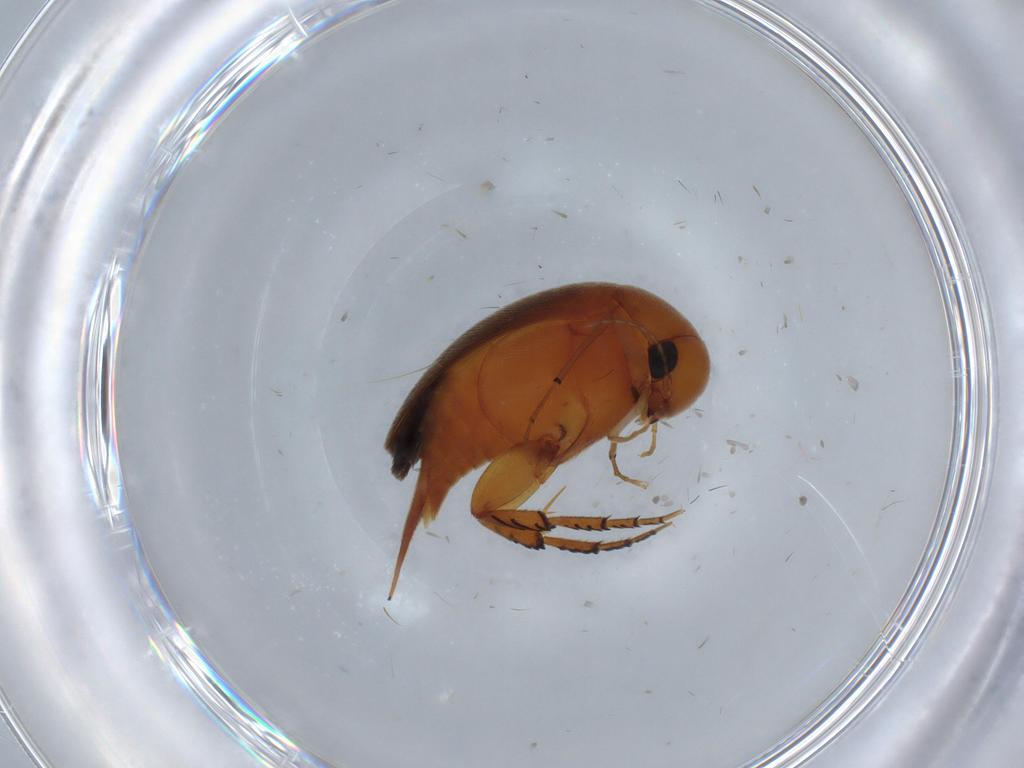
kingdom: Animalia
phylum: Arthropoda
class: Insecta
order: Coleoptera
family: Mordellidae
